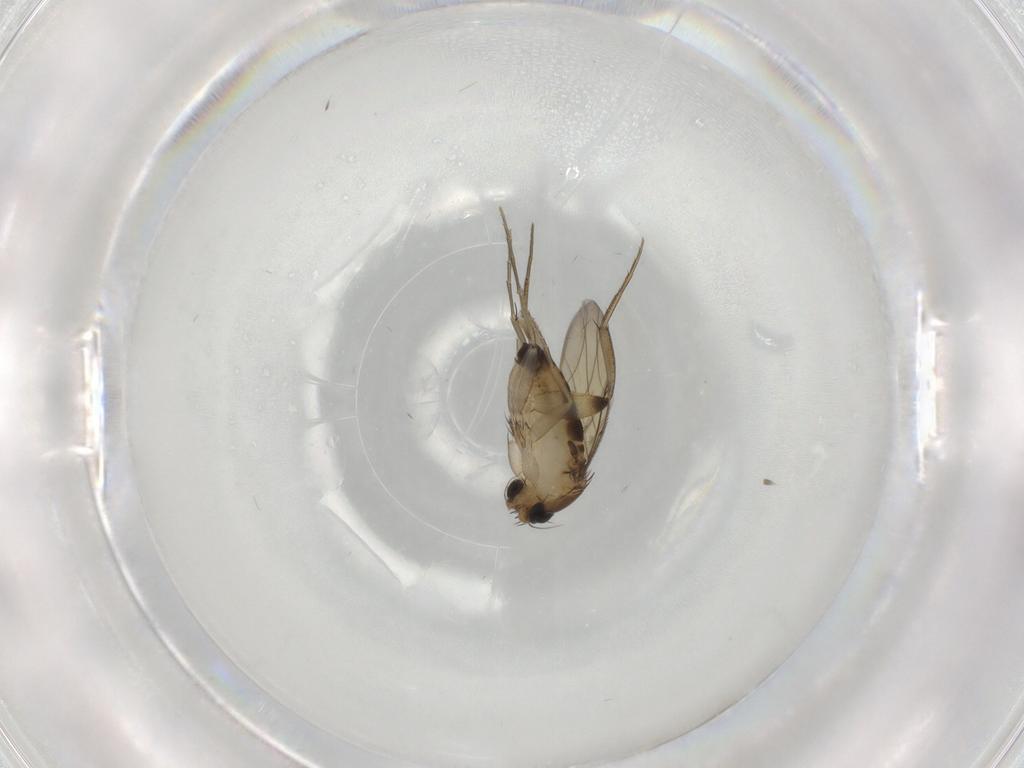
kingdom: Animalia
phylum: Arthropoda
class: Insecta
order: Diptera
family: Phoridae
